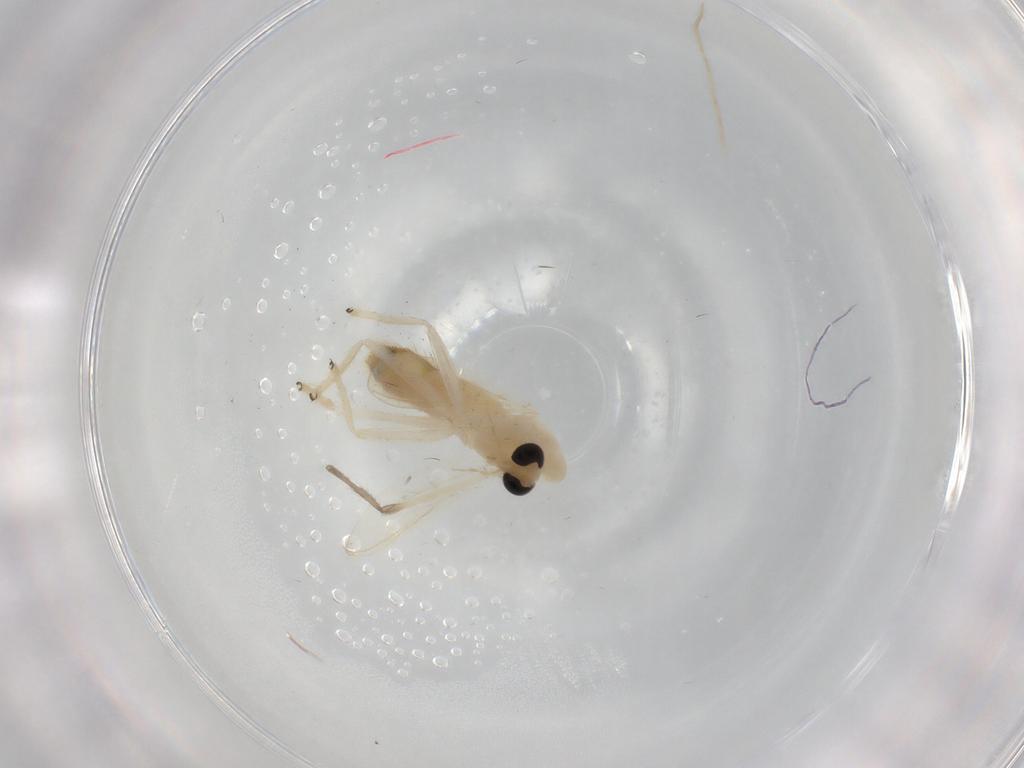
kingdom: Animalia
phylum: Arthropoda
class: Insecta
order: Diptera
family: Chironomidae
